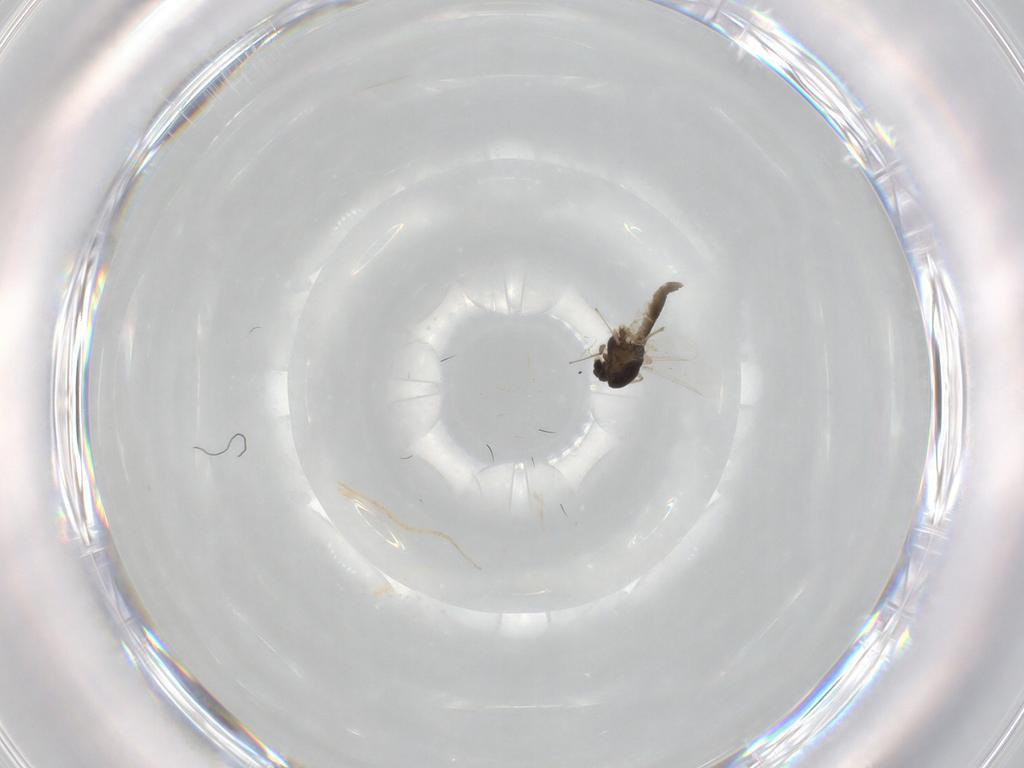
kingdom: Animalia
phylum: Arthropoda
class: Insecta
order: Diptera
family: Chironomidae
